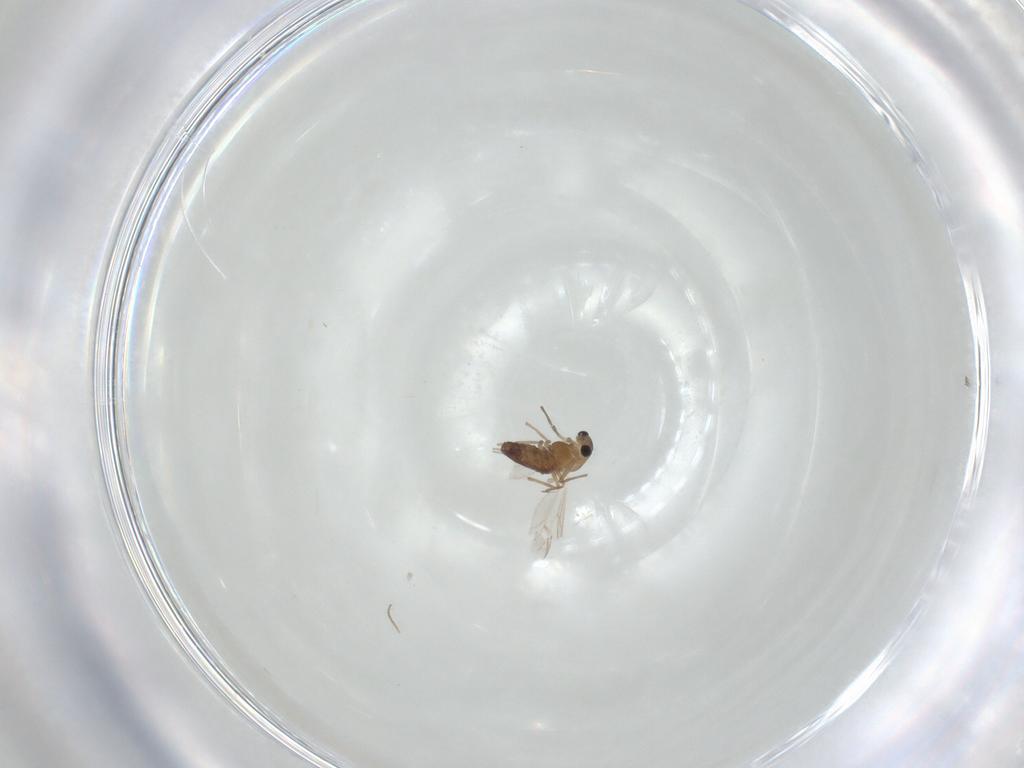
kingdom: Animalia
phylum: Arthropoda
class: Insecta
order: Diptera
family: Chironomidae
